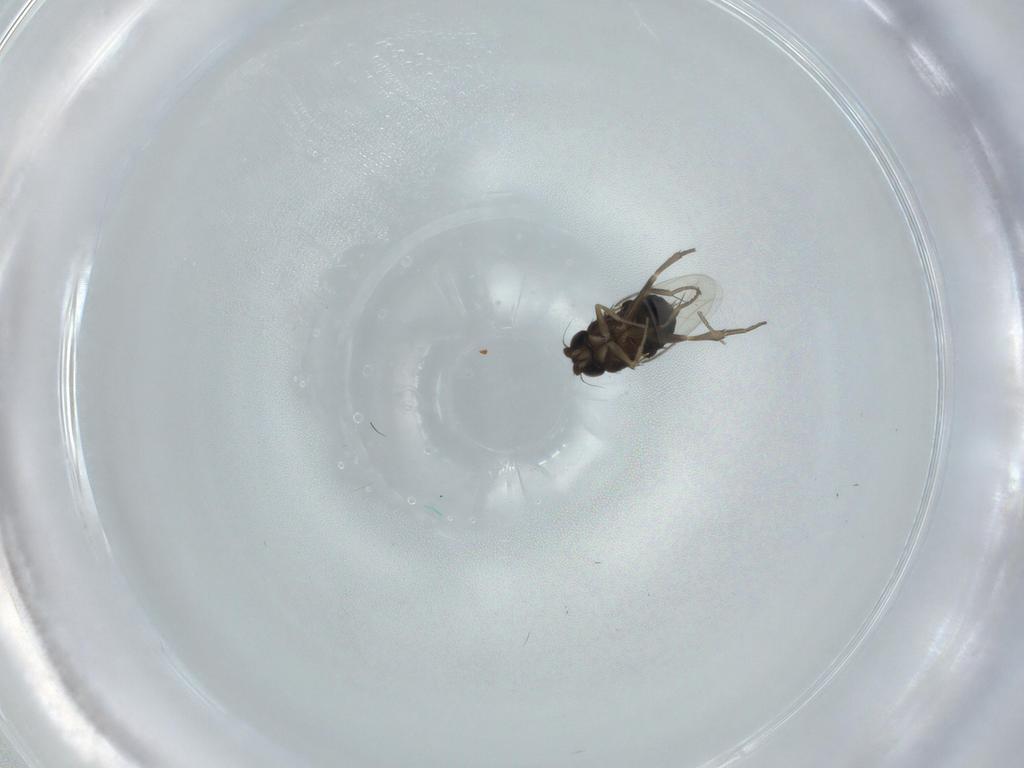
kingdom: Animalia
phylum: Arthropoda
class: Insecta
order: Diptera
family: Phoridae
